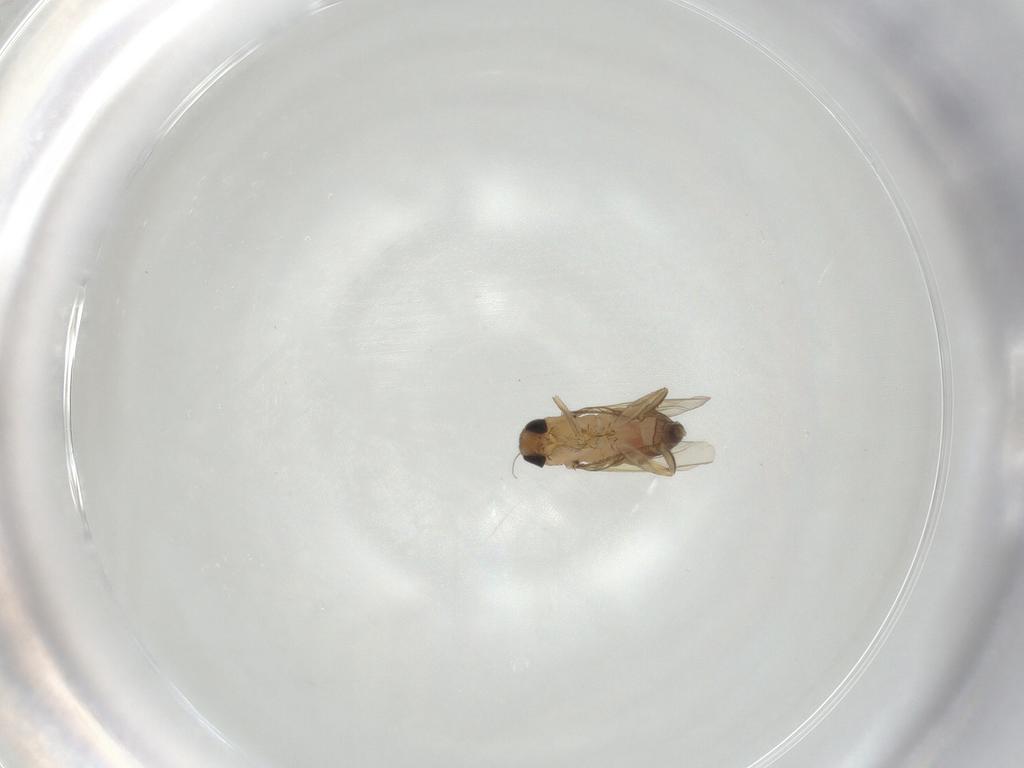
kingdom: Animalia
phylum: Arthropoda
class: Insecta
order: Diptera
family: Phoridae
